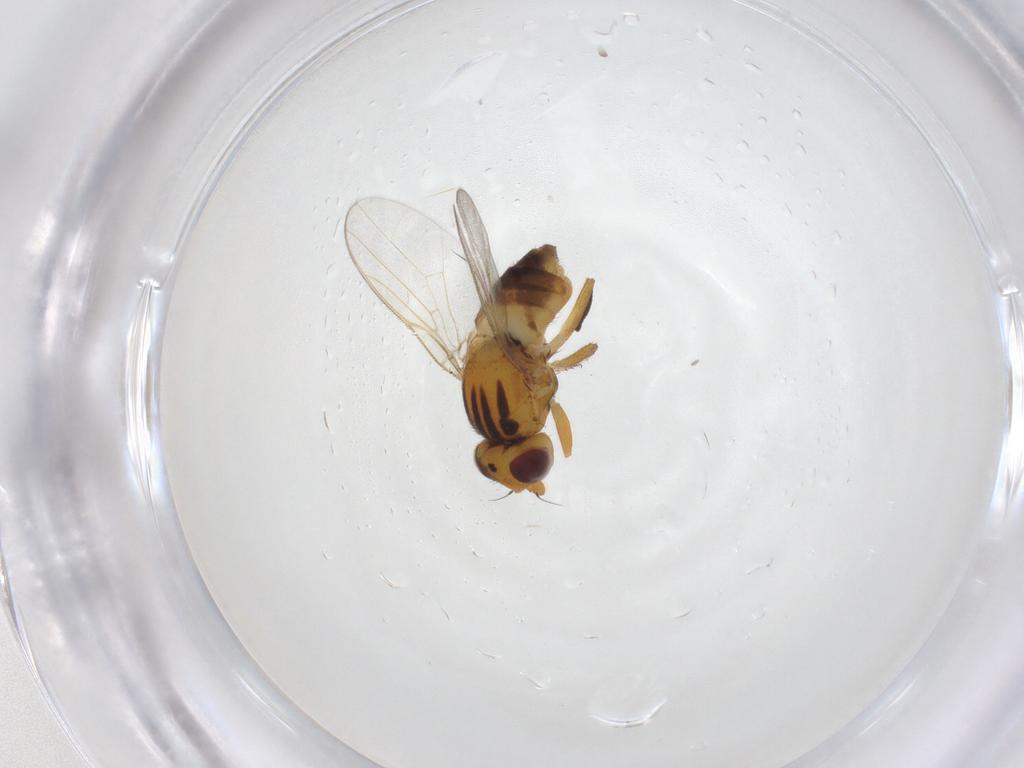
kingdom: Animalia
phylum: Arthropoda
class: Insecta
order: Diptera
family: Chloropidae
